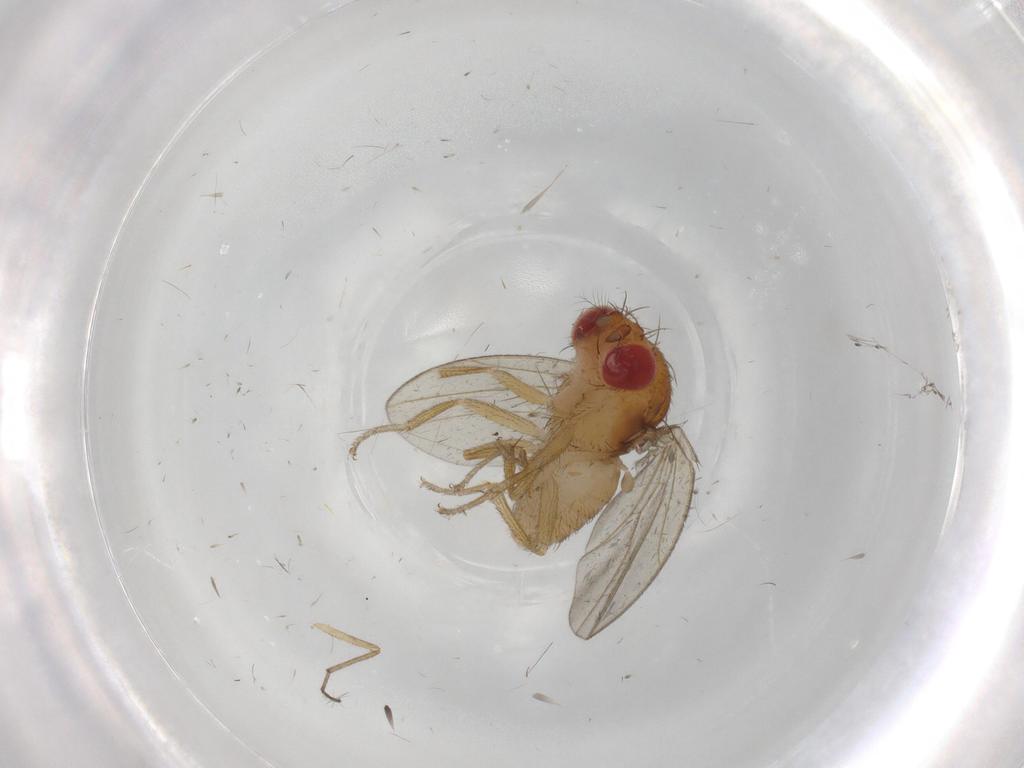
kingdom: Animalia
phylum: Arthropoda
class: Insecta
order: Diptera
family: Drosophilidae
